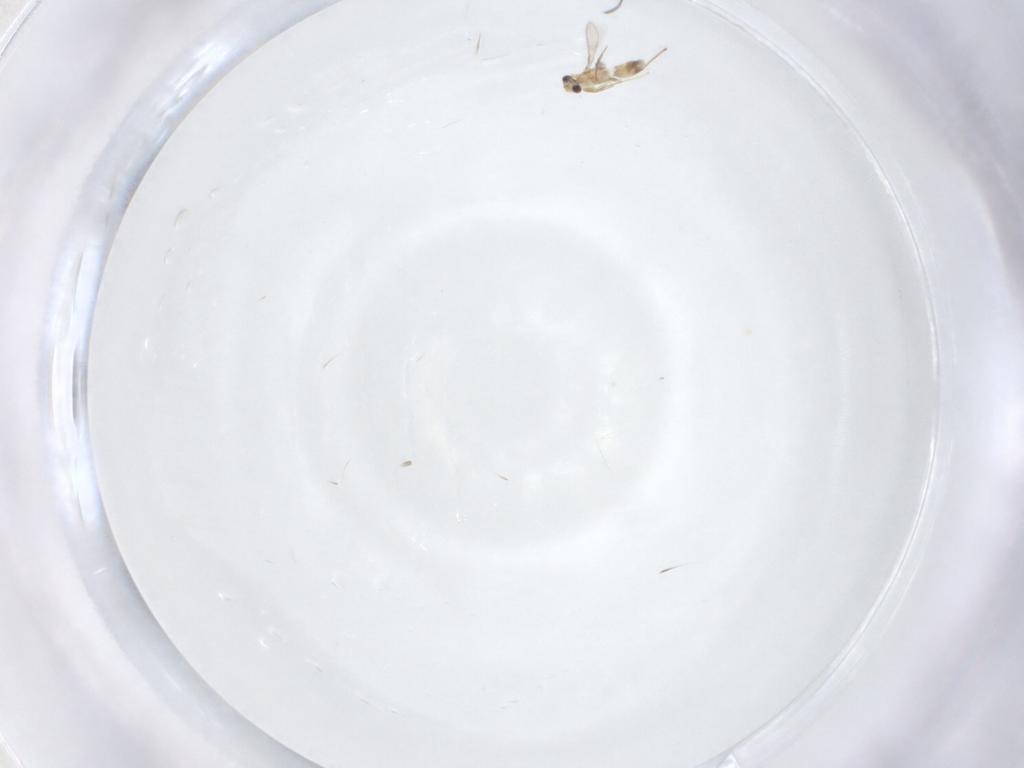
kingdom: Animalia
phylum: Arthropoda
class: Insecta
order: Hymenoptera
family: Mymaridae
